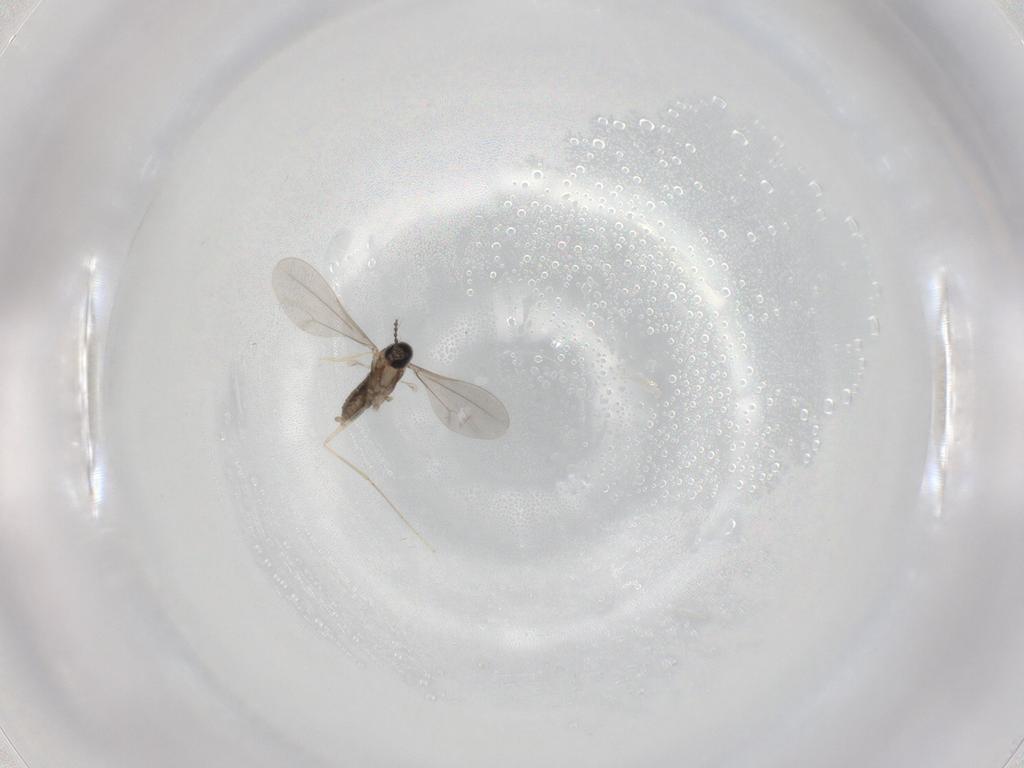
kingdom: Animalia
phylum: Arthropoda
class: Insecta
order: Diptera
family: Cecidomyiidae
